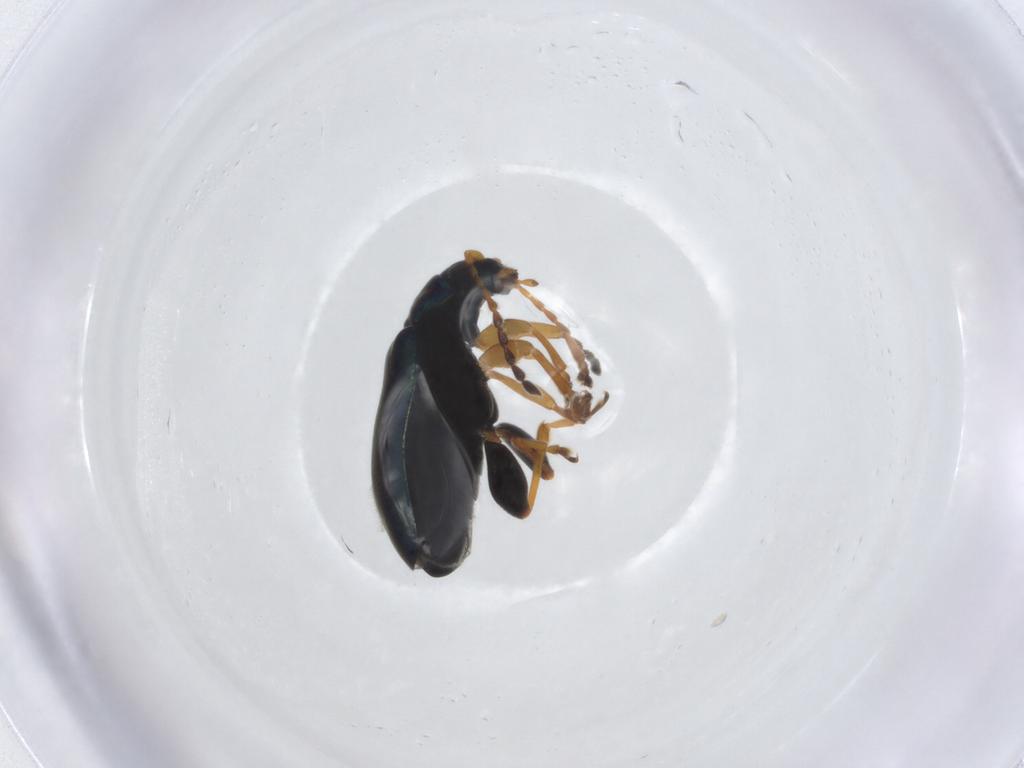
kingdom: Animalia
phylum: Arthropoda
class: Insecta
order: Coleoptera
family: Chrysomelidae
